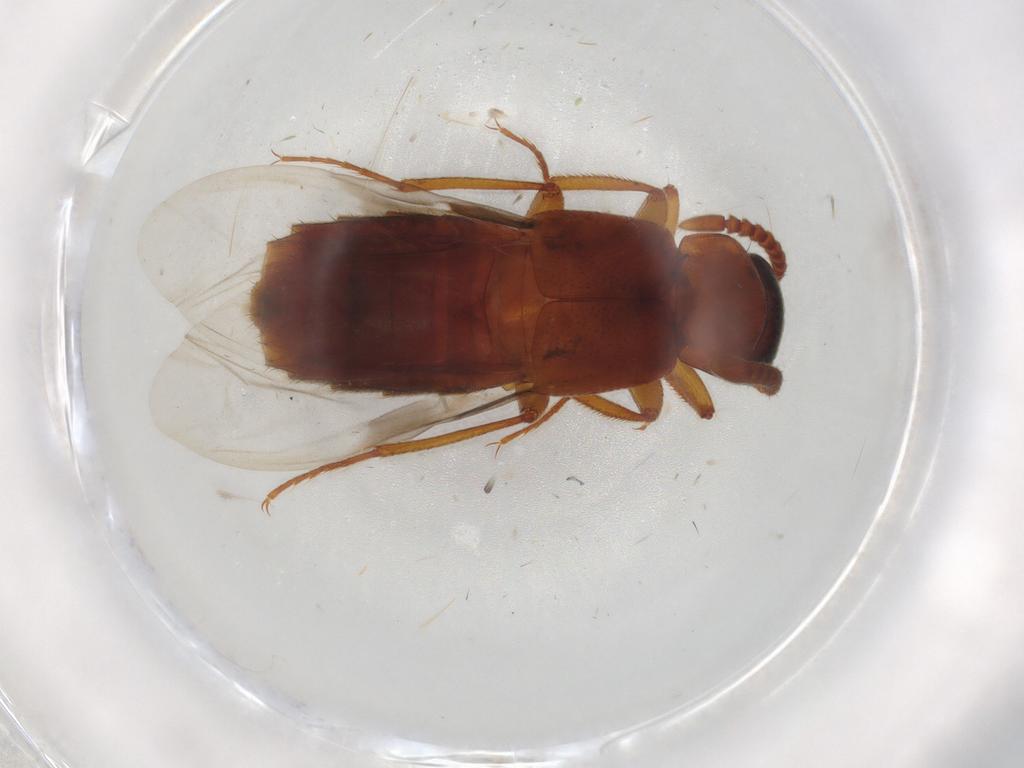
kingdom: Animalia
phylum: Arthropoda
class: Insecta
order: Coleoptera
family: Staphylinidae
